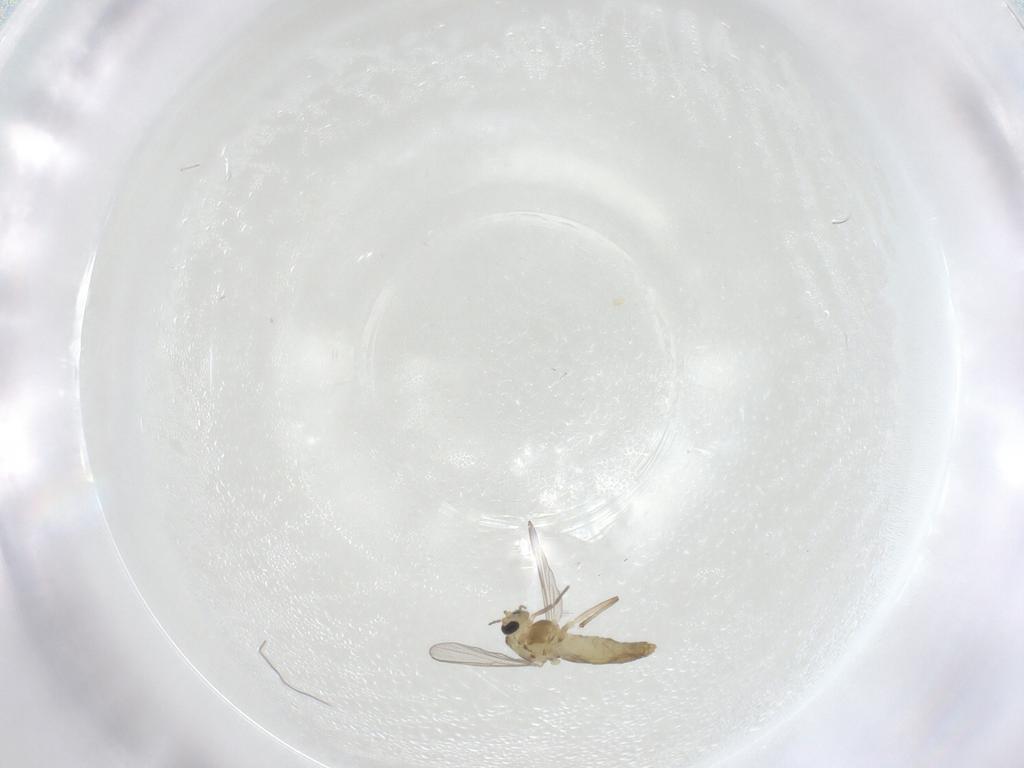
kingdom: Animalia
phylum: Arthropoda
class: Insecta
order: Diptera
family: Chironomidae
